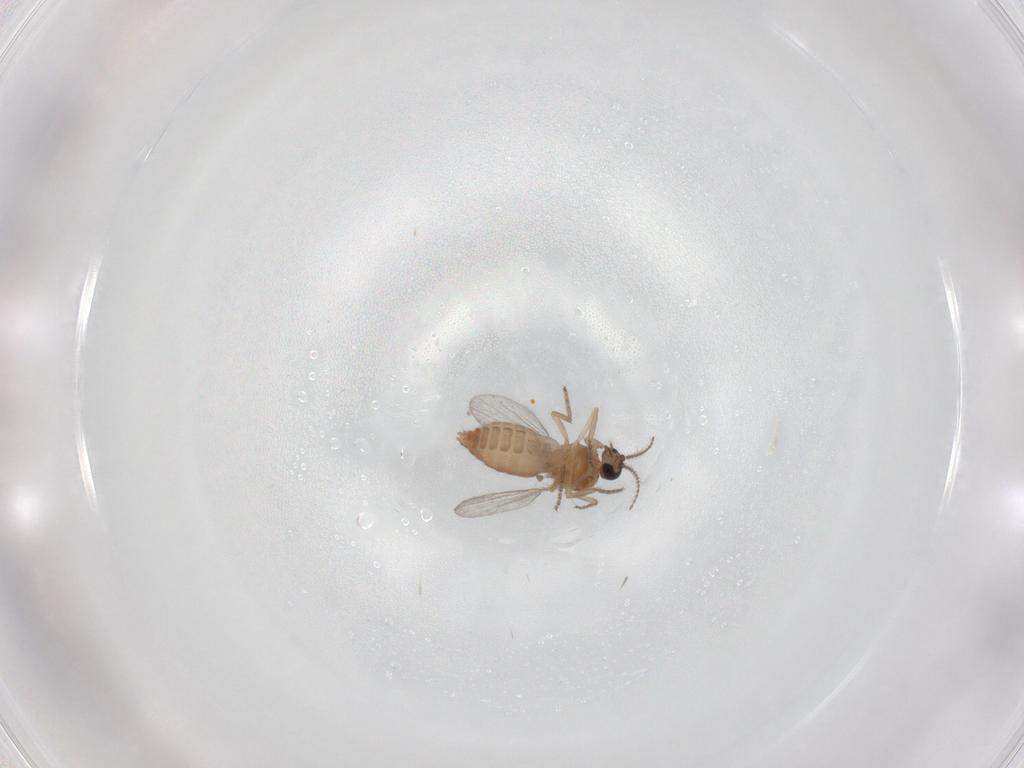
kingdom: Animalia
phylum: Arthropoda
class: Insecta
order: Diptera
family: Ceratopogonidae
